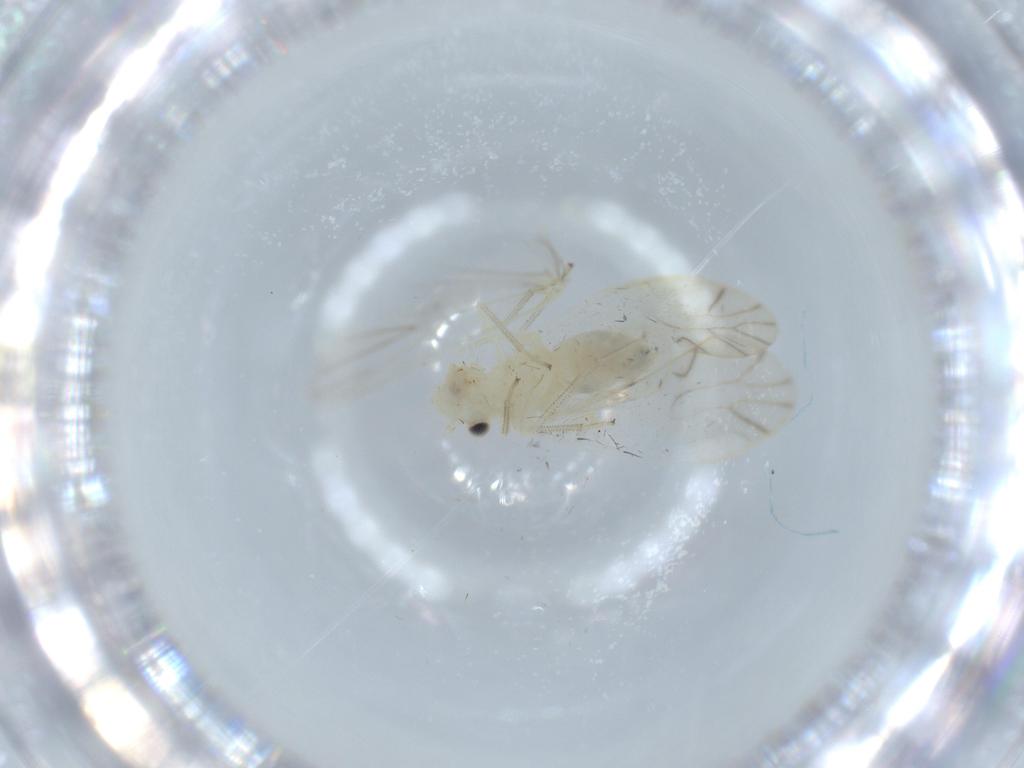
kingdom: Animalia
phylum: Arthropoda
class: Insecta
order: Psocodea
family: Caeciliusidae
